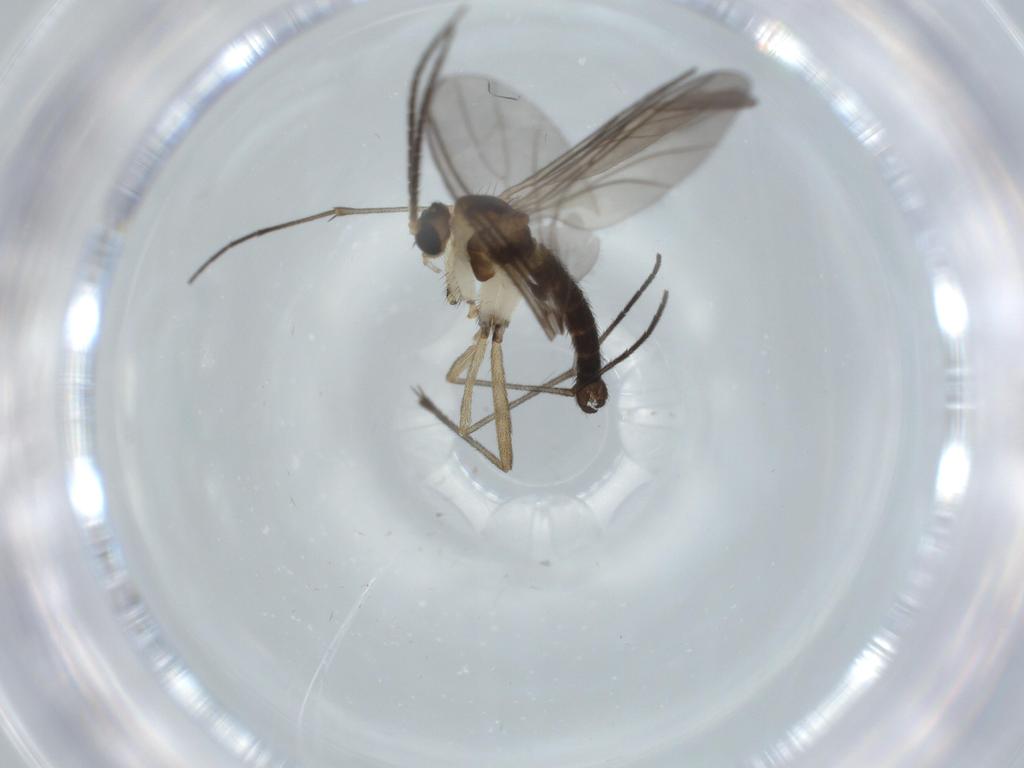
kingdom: Animalia
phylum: Arthropoda
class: Insecta
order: Diptera
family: Sciaridae
